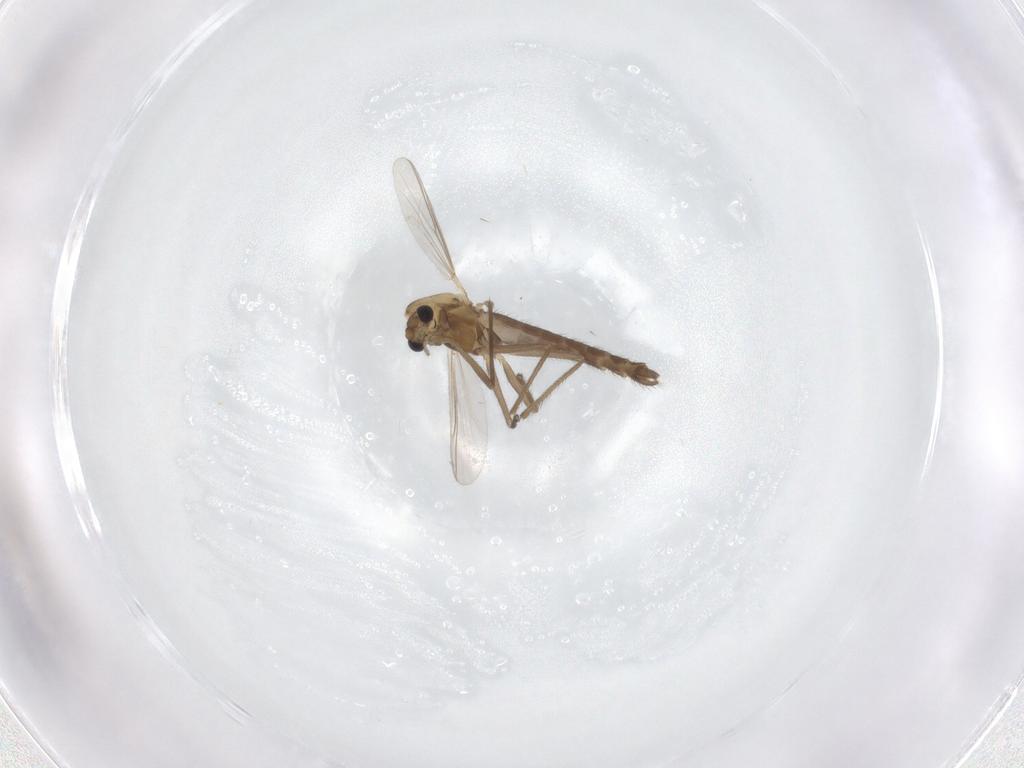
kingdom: Animalia
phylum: Arthropoda
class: Insecta
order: Diptera
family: Chironomidae
